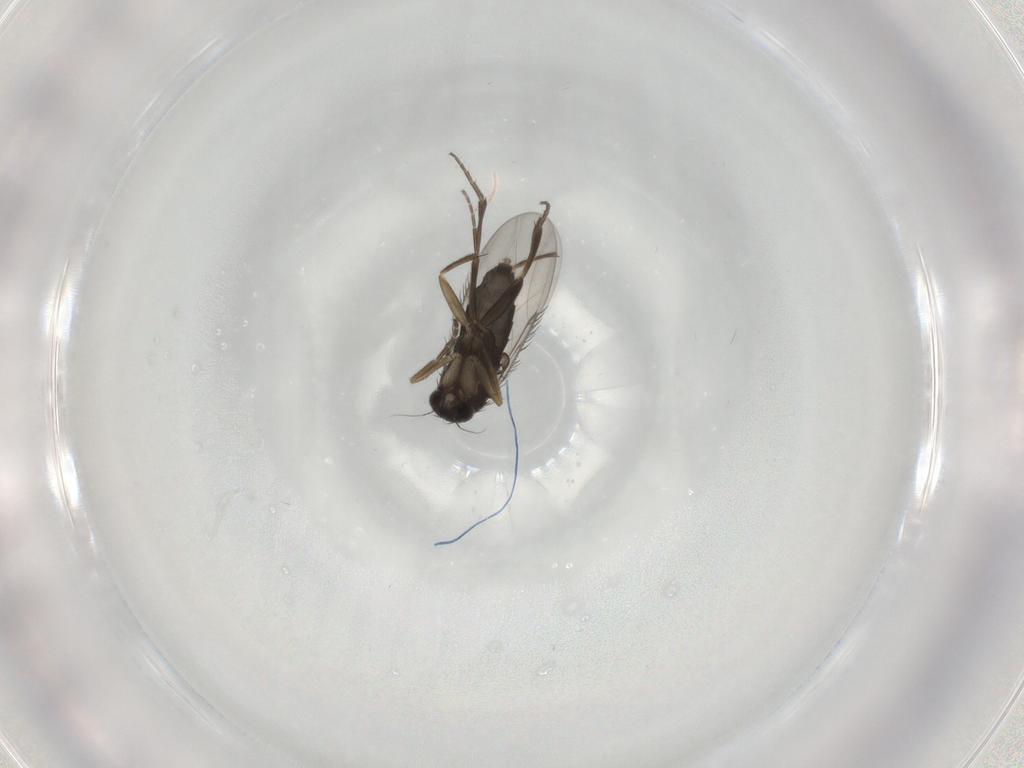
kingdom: Animalia
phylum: Arthropoda
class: Insecta
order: Diptera
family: Phoridae
